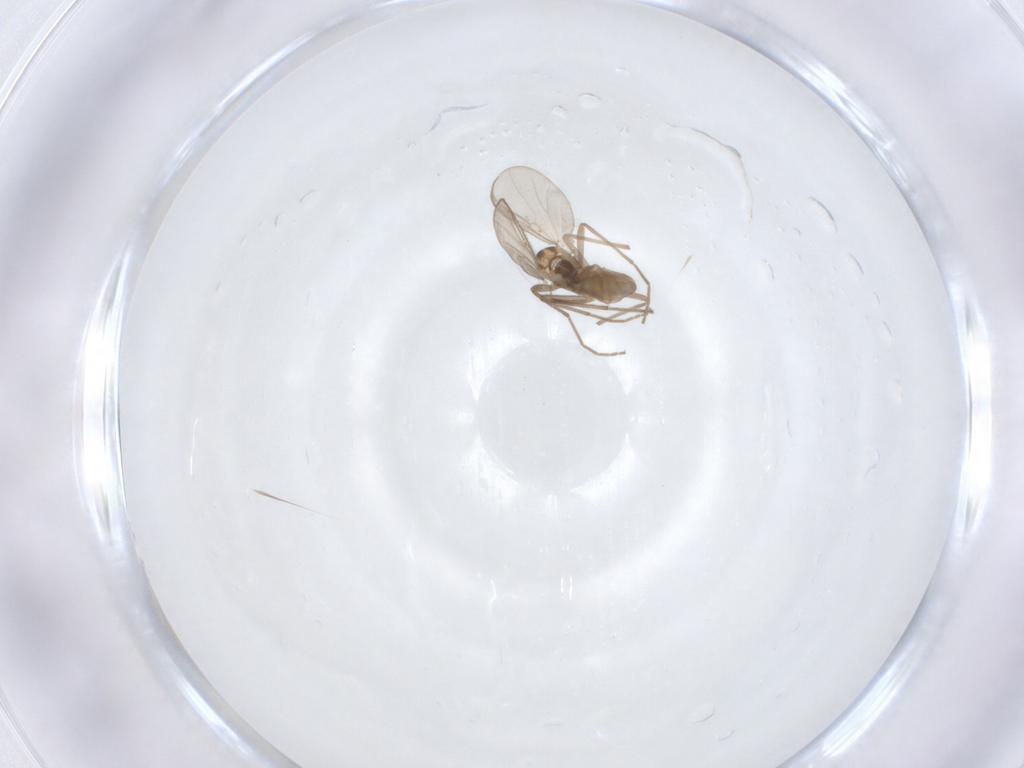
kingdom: Animalia
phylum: Arthropoda
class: Insecta
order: Diptera
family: Chironomidae
